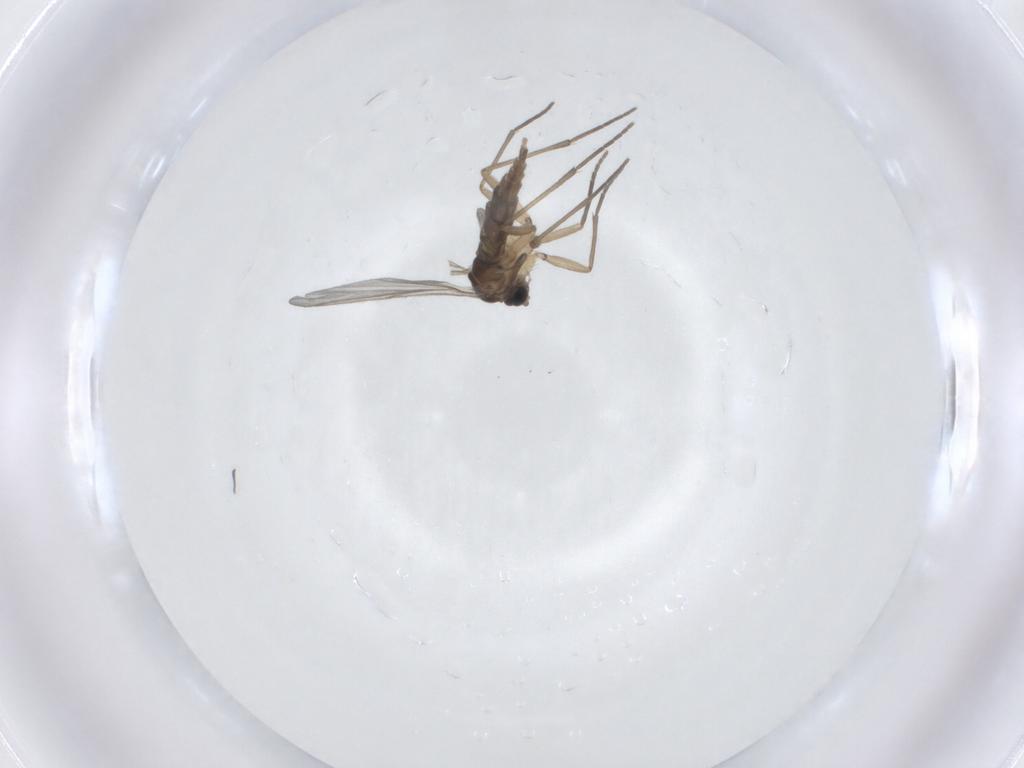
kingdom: Animalia
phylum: Arthropoda
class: Insecta
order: Diptera
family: Sciaridae
